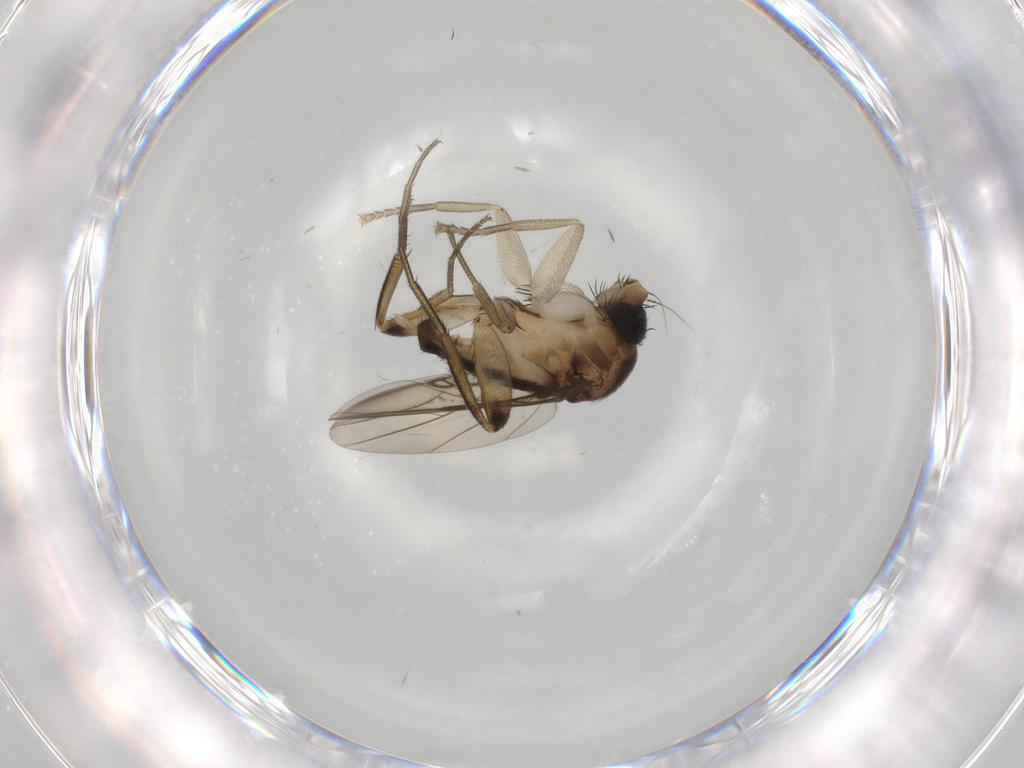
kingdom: Animalia
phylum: Arthropoda
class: Insecta
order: Diptera
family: Phoridae
